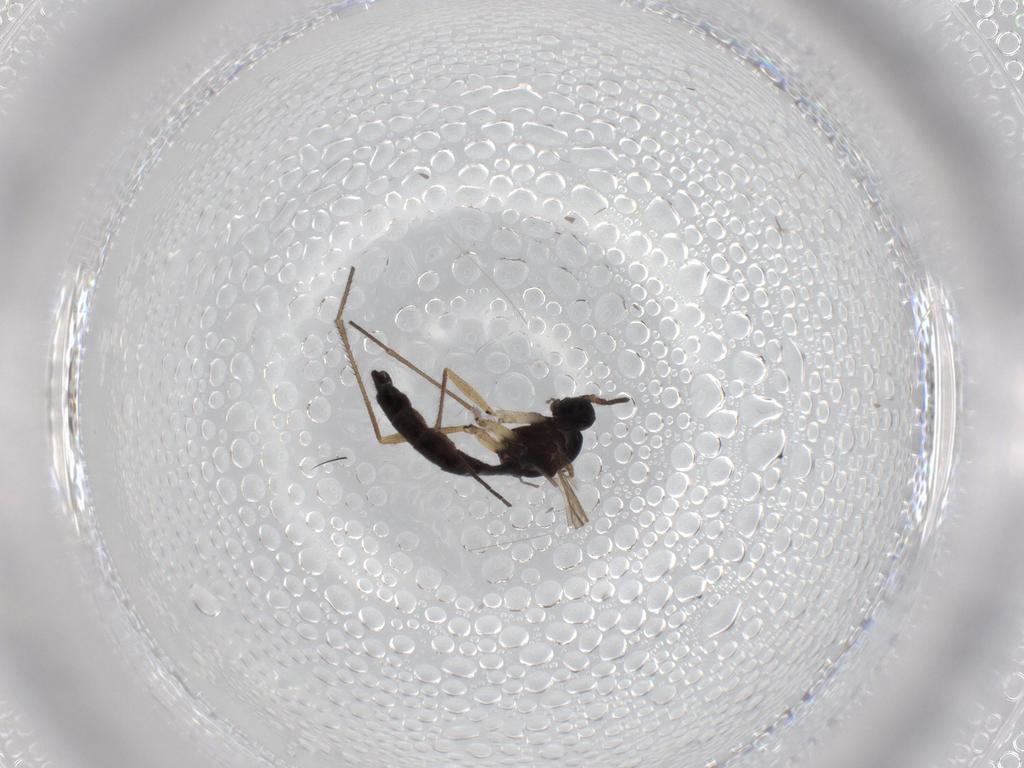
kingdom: Animalia
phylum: Arthropoda
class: Insecta
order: Diptera
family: Sciaridae
